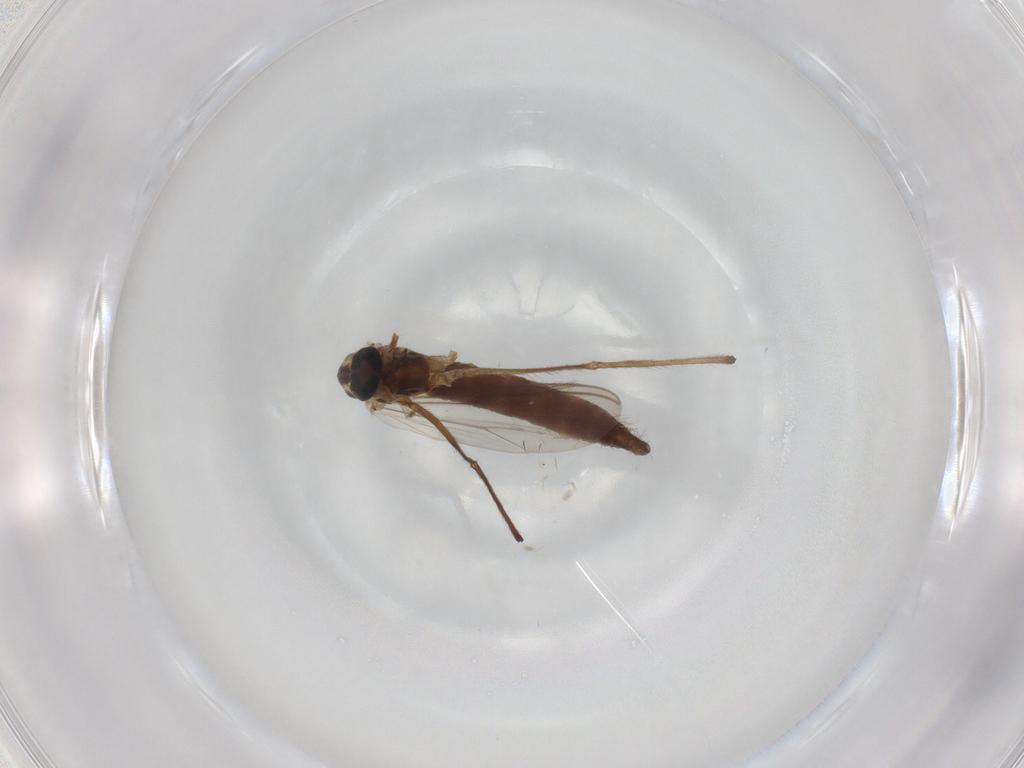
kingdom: Animalia
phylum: Arthropoda
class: Insecta
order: Diptera
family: Chironomidae
